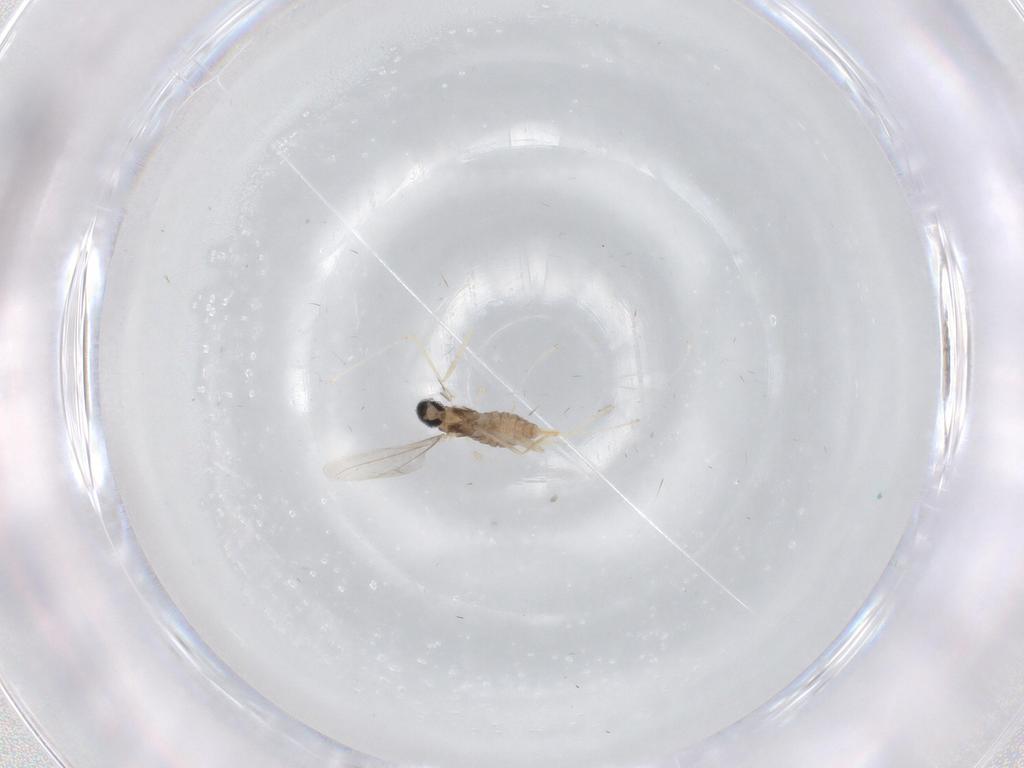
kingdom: Animalia
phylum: Arthropoda
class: Insecta
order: Diptera
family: Cecidomyiidae
